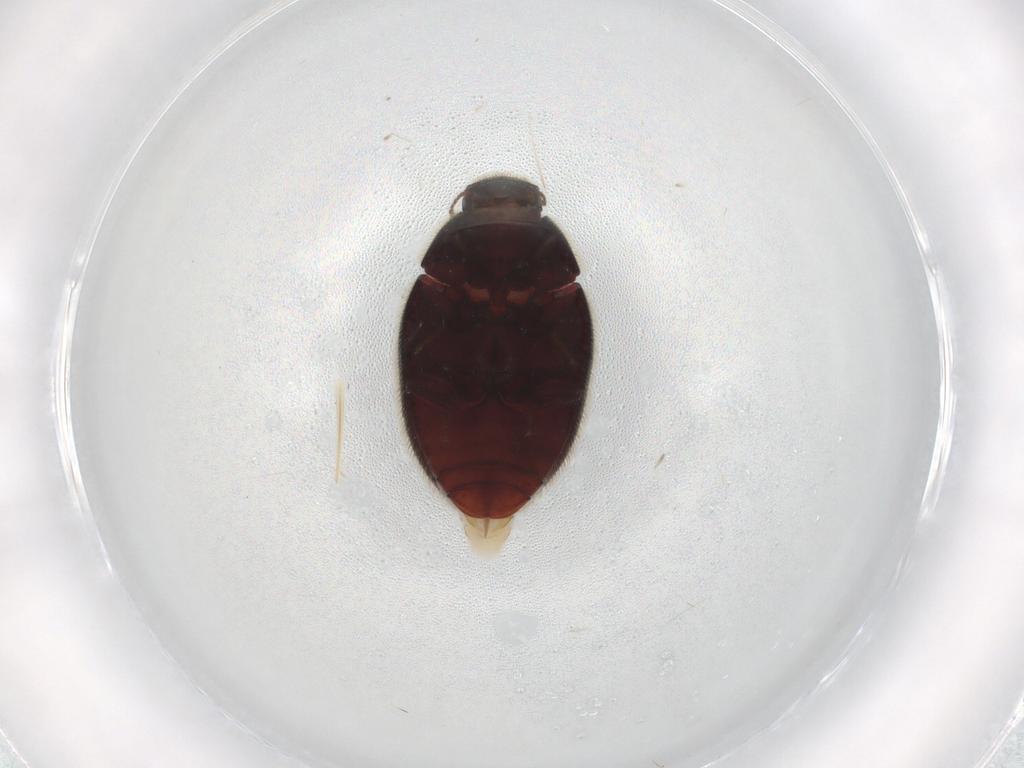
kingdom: Animalia
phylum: Arthropoda
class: Insecta
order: Coleoptera
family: Limnichidae
